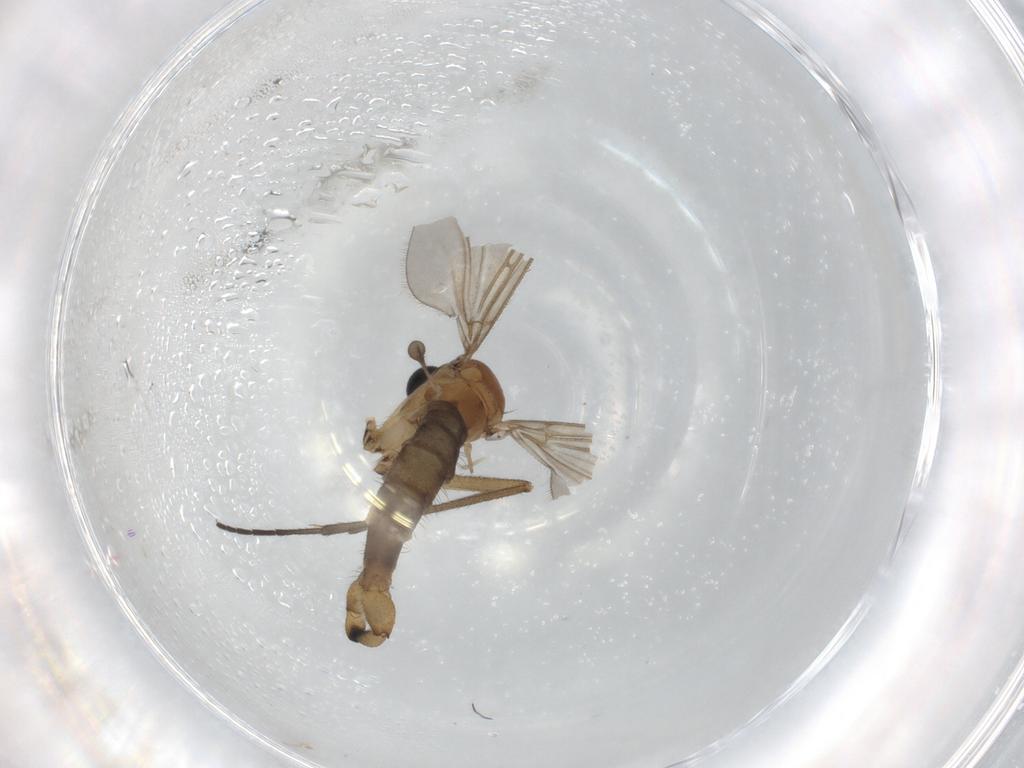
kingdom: Animalia
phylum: Arthropoda
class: Insecta
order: Diptera
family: Sciaridae
